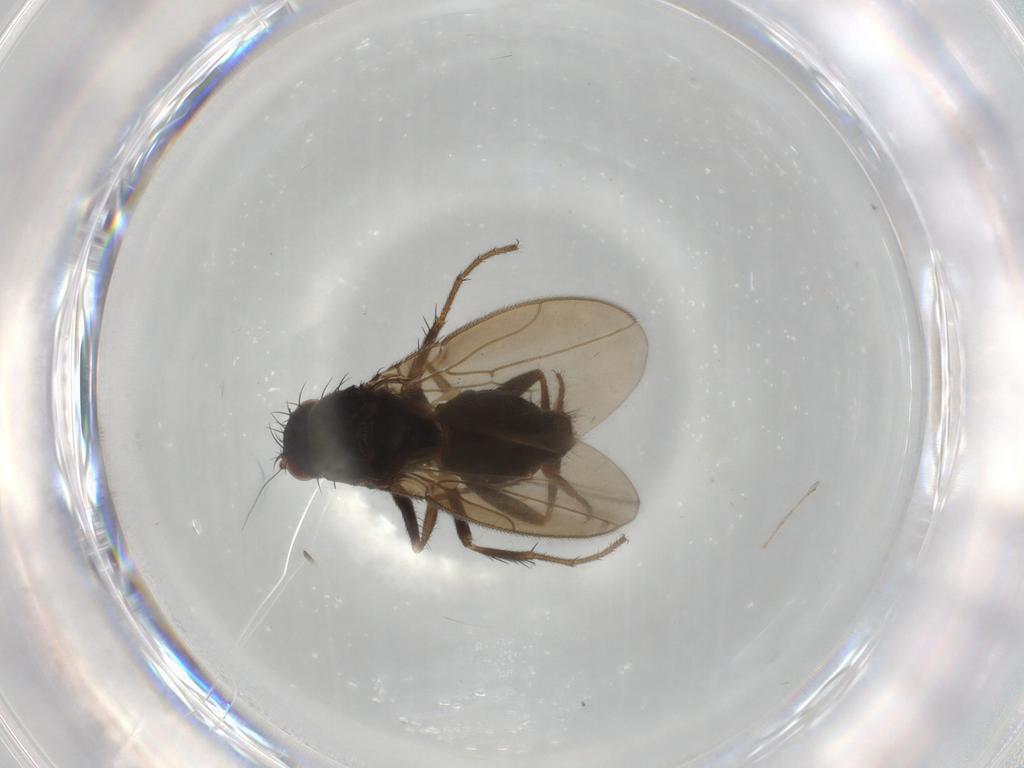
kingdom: Animalia
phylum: Arthropoda
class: Insecta
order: Diptera
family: Sphaeroceridae
